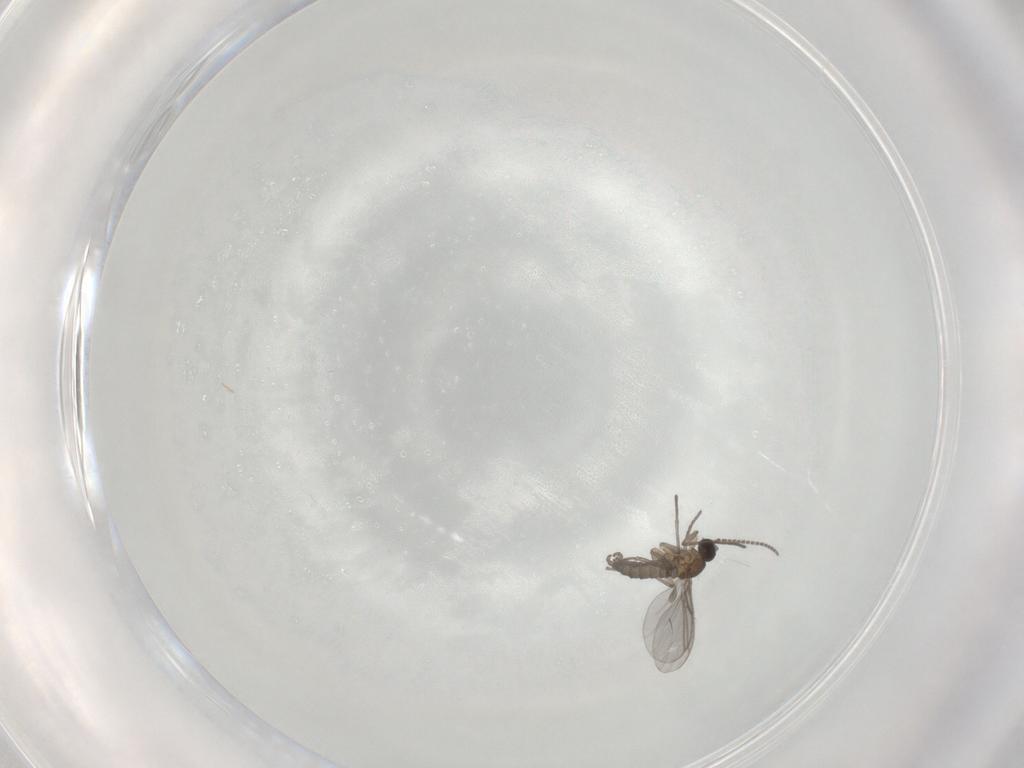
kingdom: Animalia
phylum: Arthropoda
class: Insecta
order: Diptera
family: Cecidomyiidae
